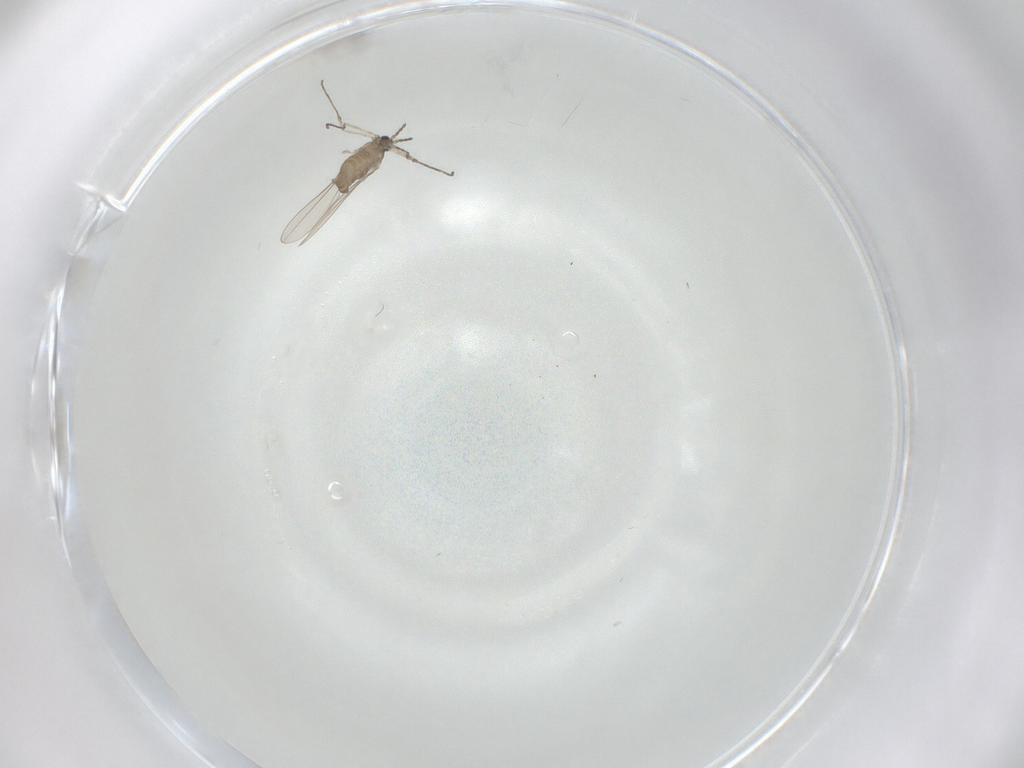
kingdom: Animalia
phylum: Arthropoda
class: Insecta
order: Diptera
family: Cecidomyiidae
